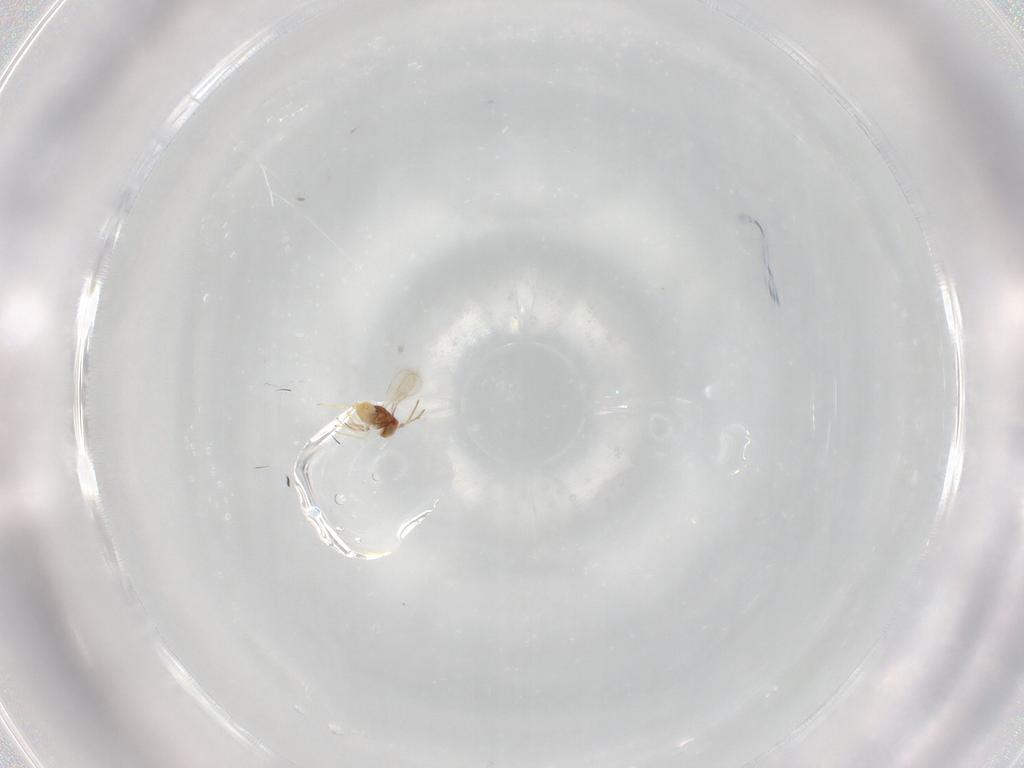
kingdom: Animalia
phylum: Arthropoda
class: Insecta
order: Hymenoptera
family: Aphelinidae
